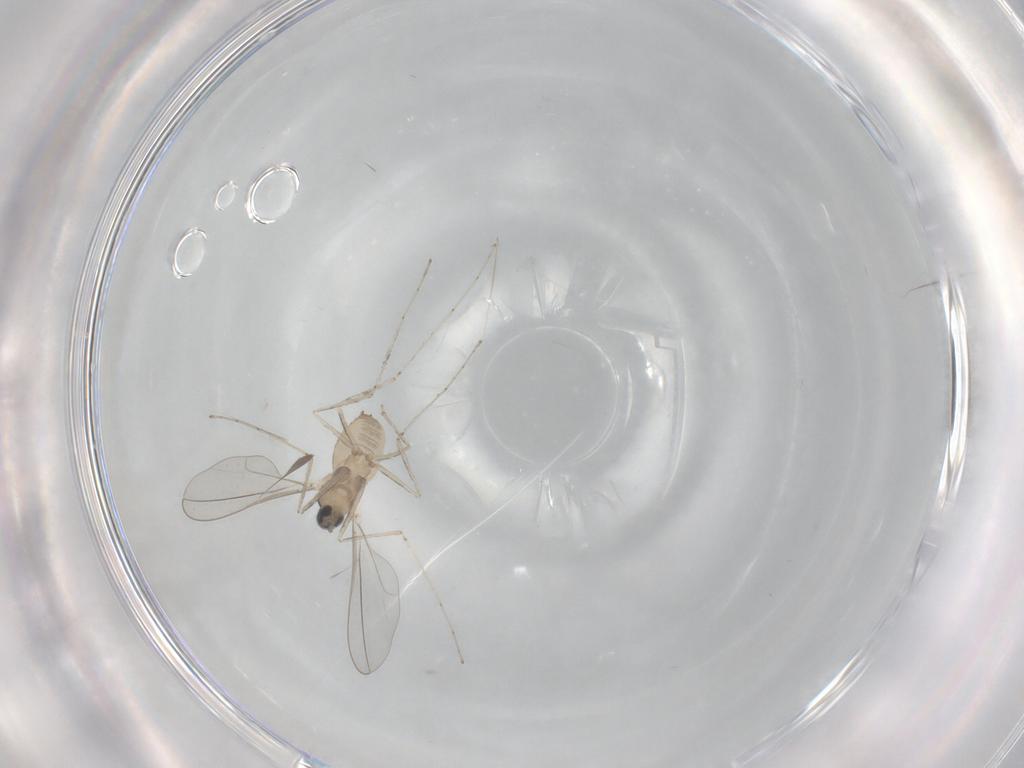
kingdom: Animalia
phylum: Arthropoda
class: Insecta
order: Diptera
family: Cecidomyiidae
